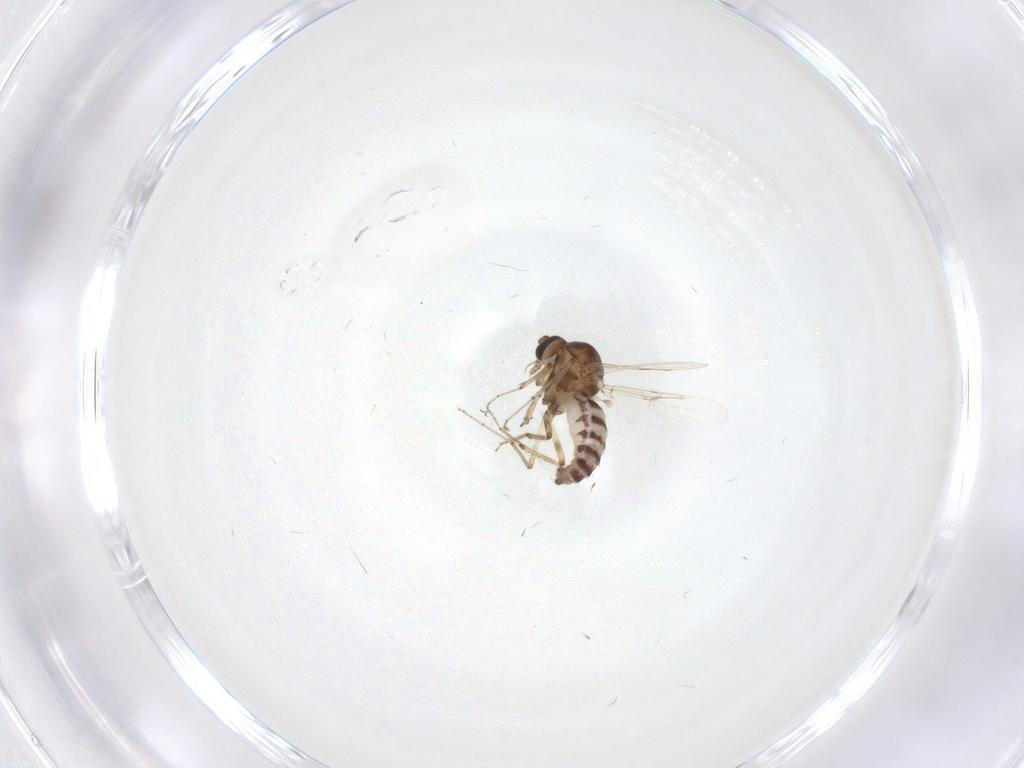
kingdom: Animalia
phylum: Arthropoda
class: Insecta
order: Diptera
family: Ceratopogonidae
